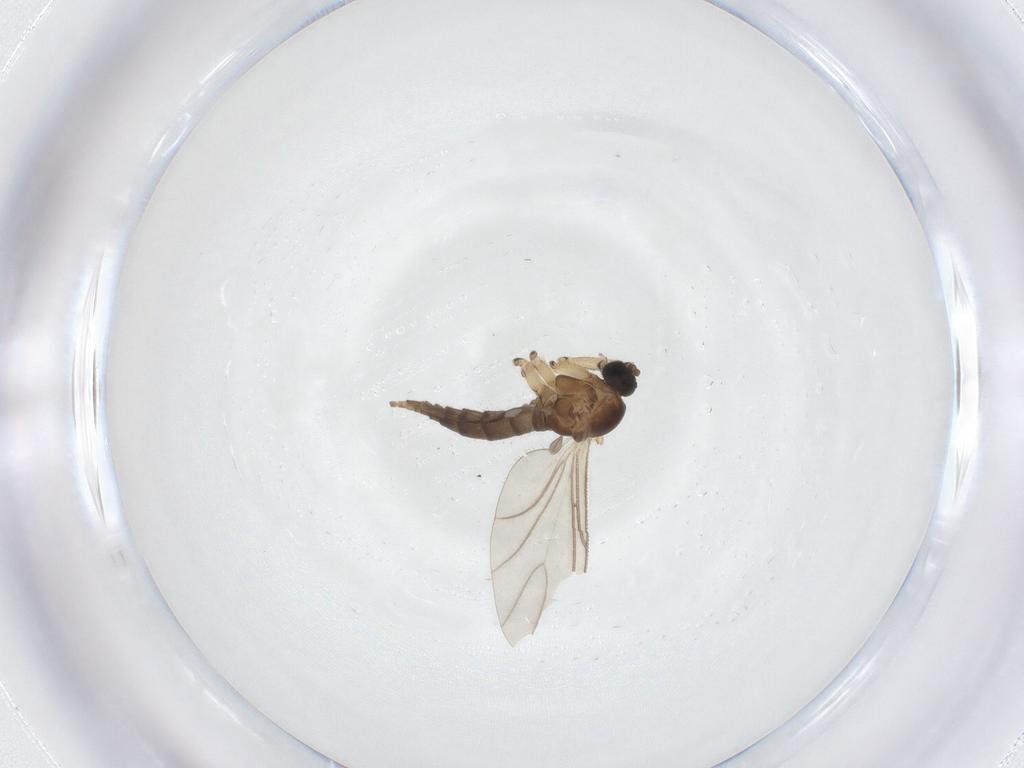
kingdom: Animalia
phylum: Arthropoda
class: Insecta
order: Diptera
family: Sciaridae
